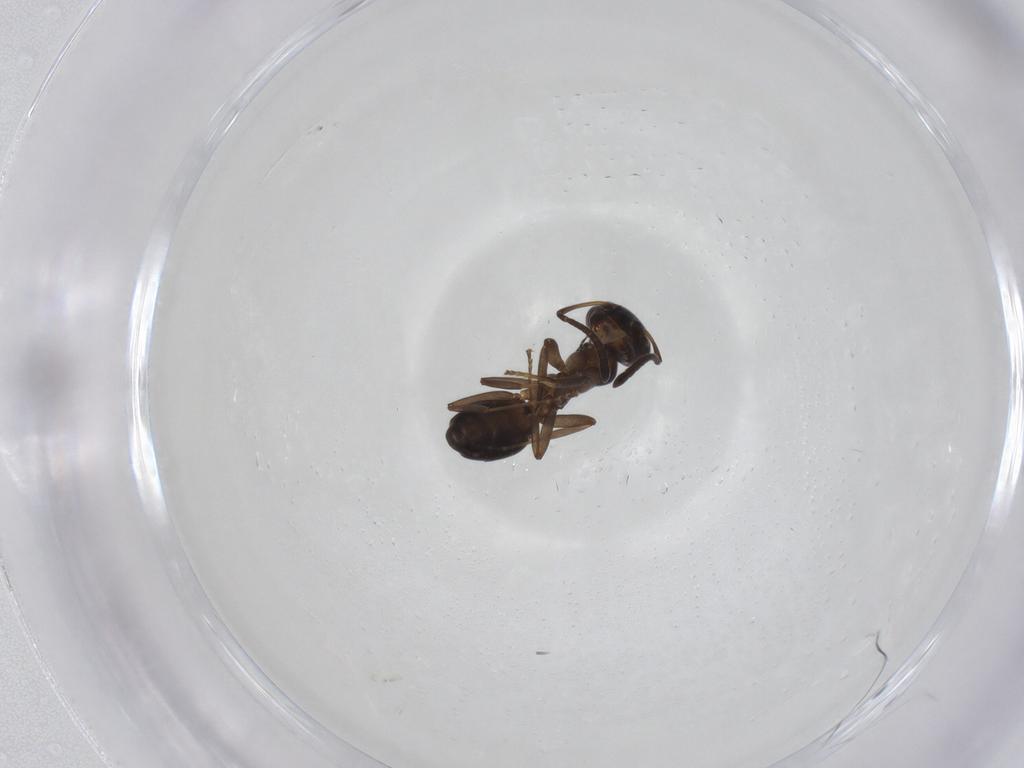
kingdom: Animalia
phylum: Arthropoda
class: Insecta
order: Hymenoptera
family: Formicidae
